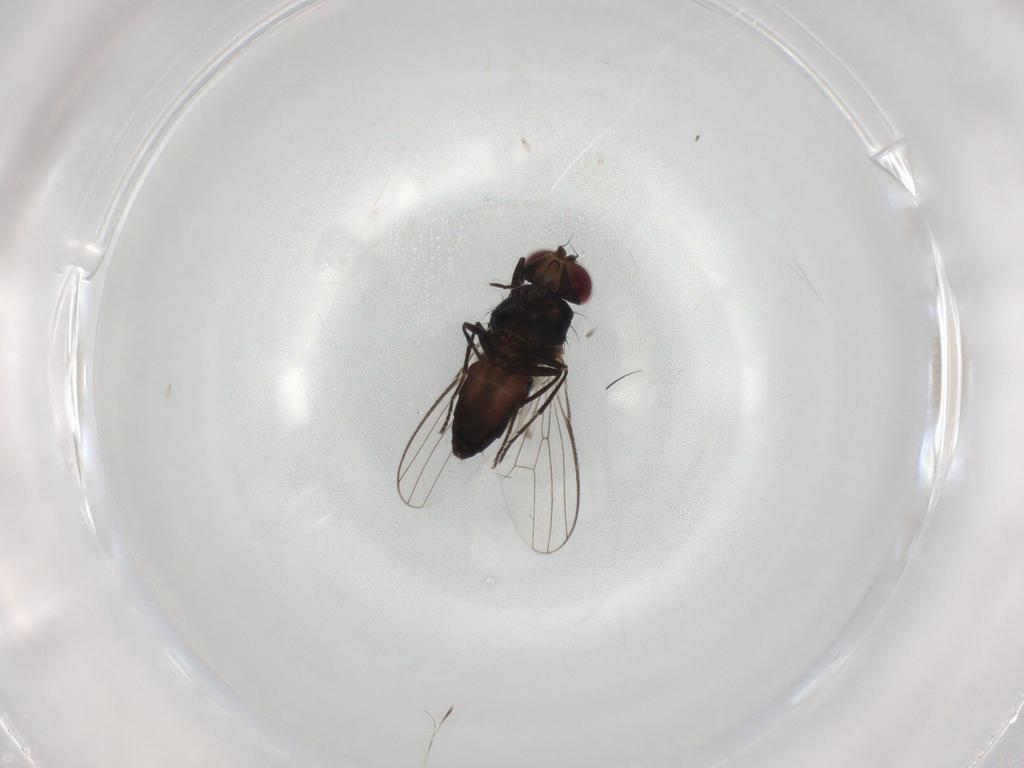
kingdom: Animalia
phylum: Arthropoda
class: Insecta
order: Diptera
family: Carnidae
